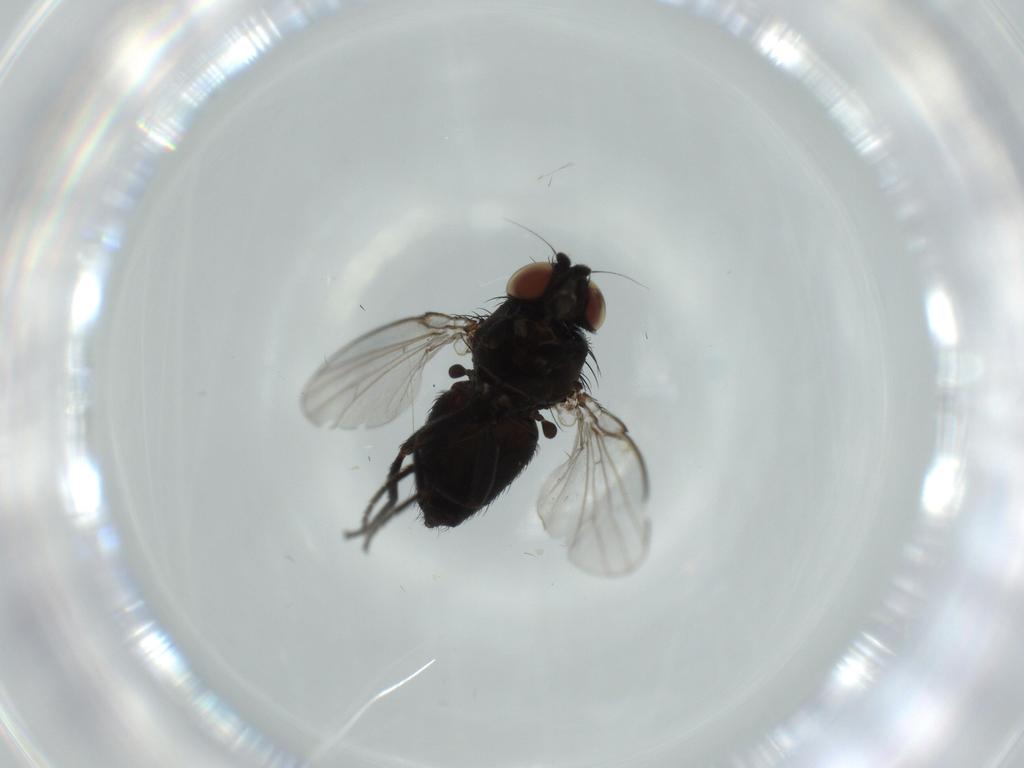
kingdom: Animalia
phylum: Arthropoda
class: Insecta
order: Diptera
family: Milichiidae
